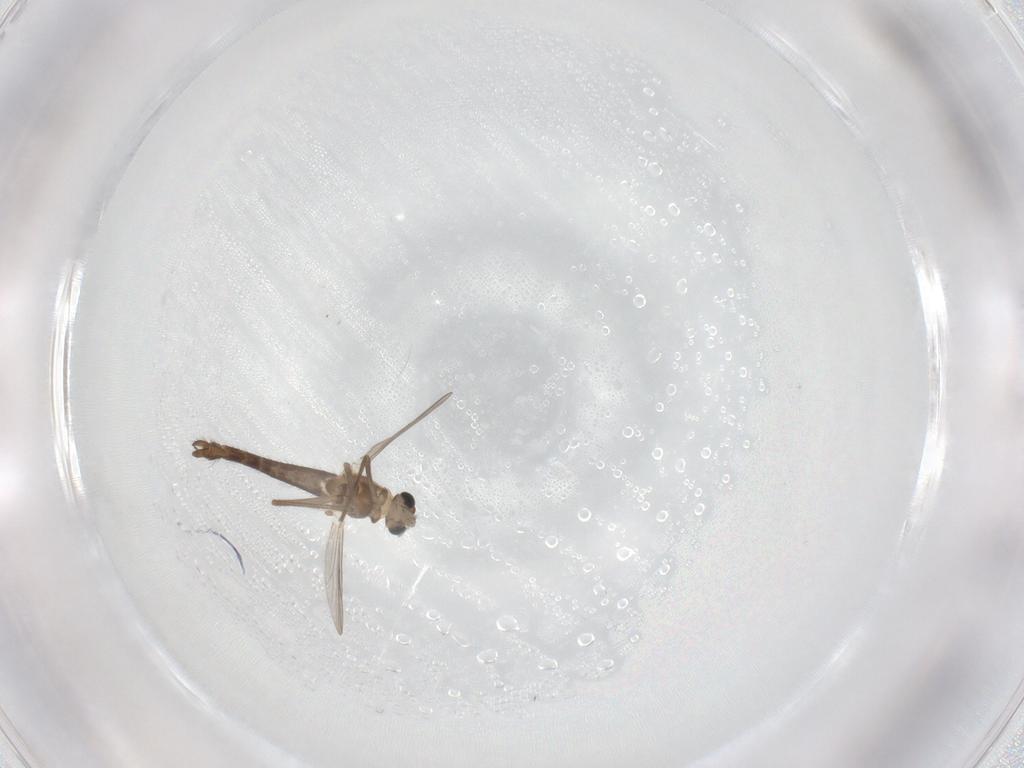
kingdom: Animalia
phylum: Arthropoda
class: Insecta
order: Diptera
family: Chironomidae
